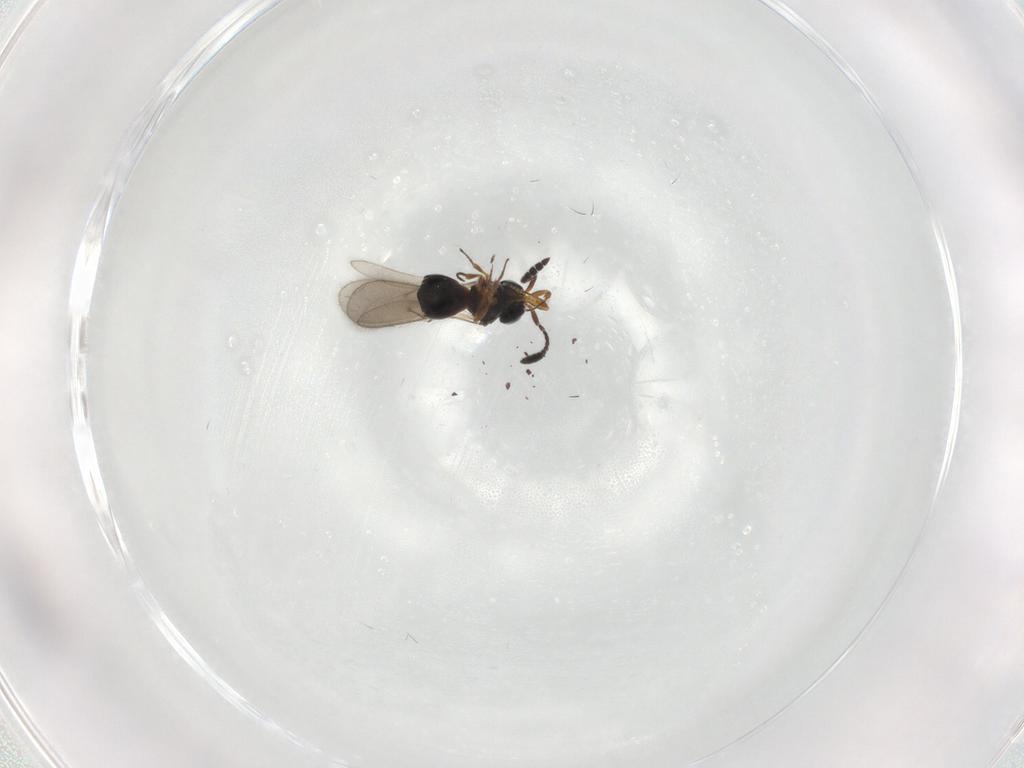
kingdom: Animalia
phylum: Arthropoda
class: Insecta
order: Hymenoptera
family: Scelionidae
